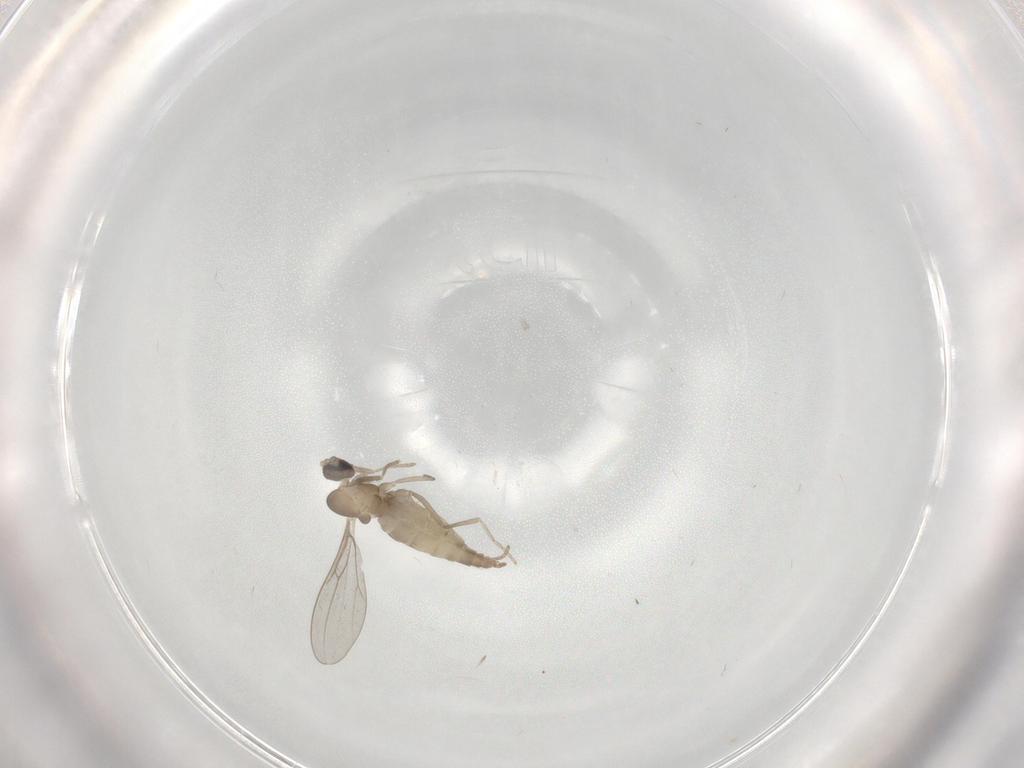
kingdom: Animalia
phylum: Arthropoda
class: Insecta
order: Diptera
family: Cecidomyiidae
